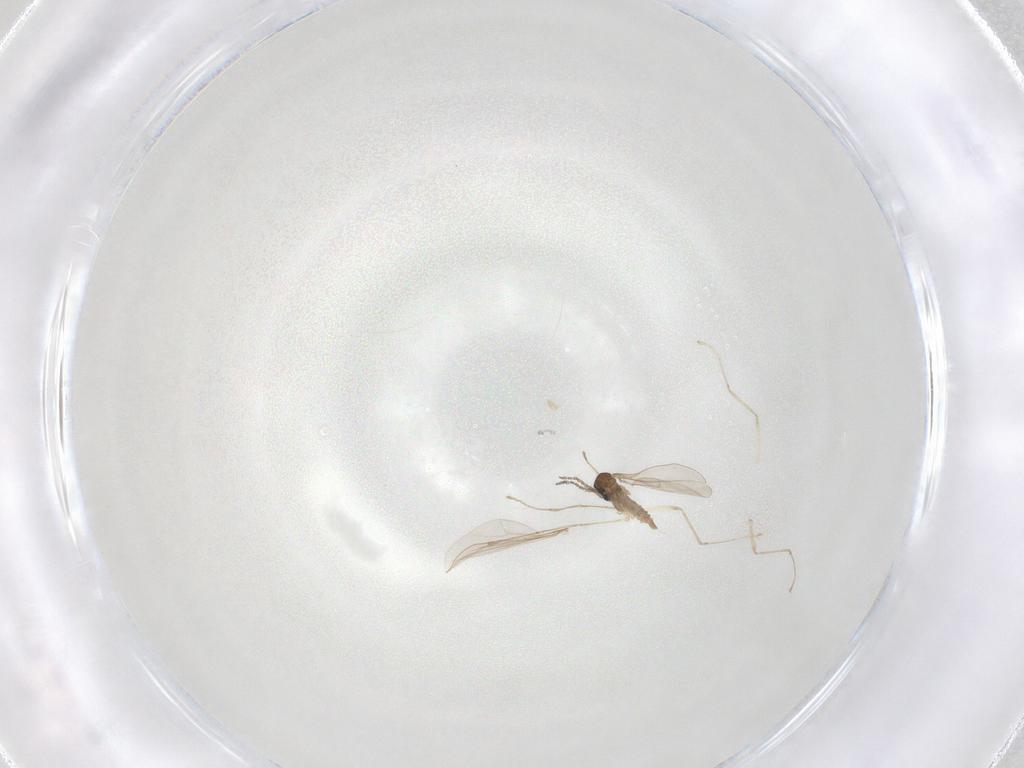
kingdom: Animalia
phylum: Arthropoda
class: Insecta
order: Diptera
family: Cecidomyiidae
